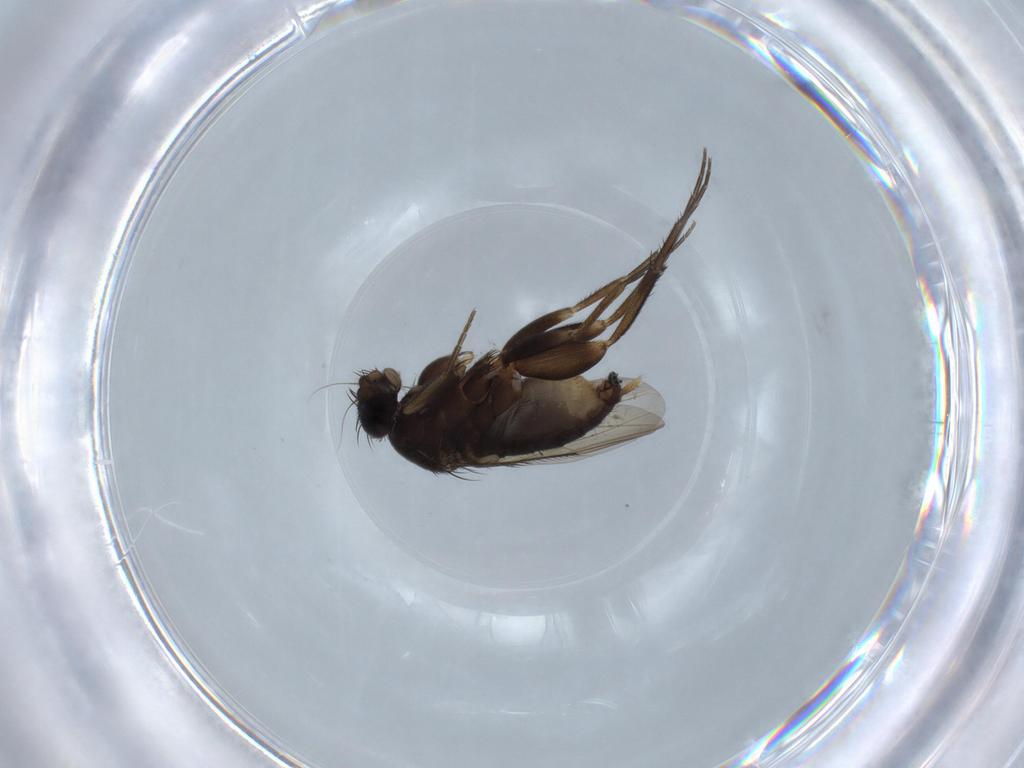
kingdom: Animalia
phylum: Arthropoda
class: Insecta
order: Diptera
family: Phoridae
